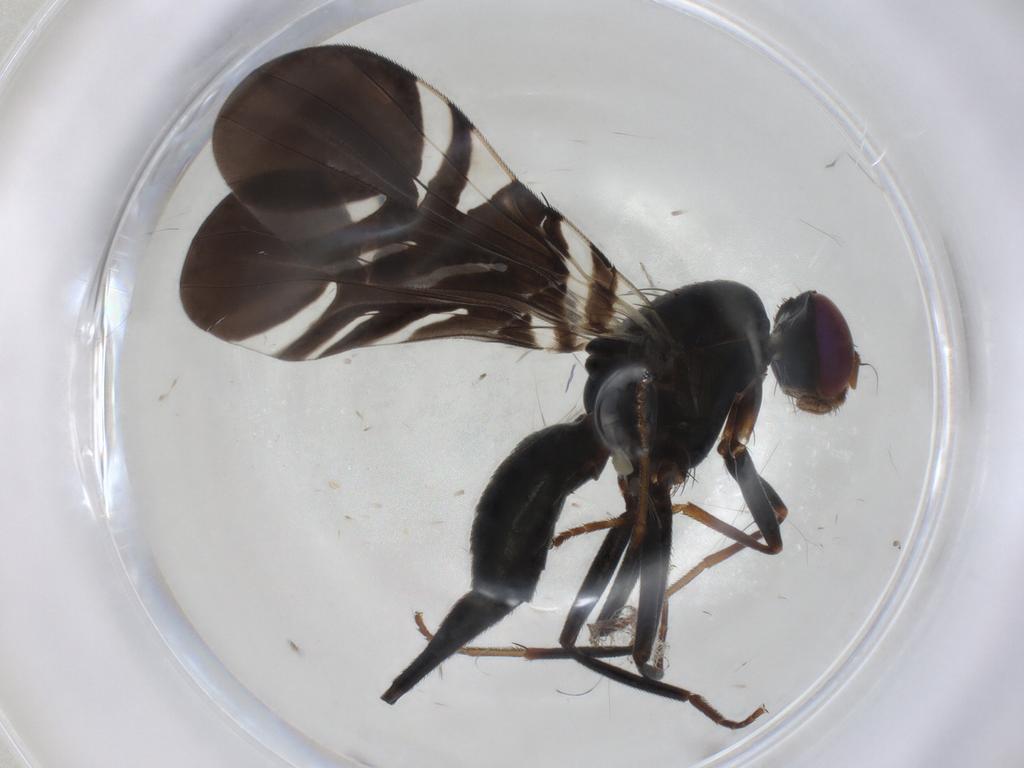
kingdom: Animalia
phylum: Arthropoda
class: Insecta
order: Diptera
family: Tephritidae
